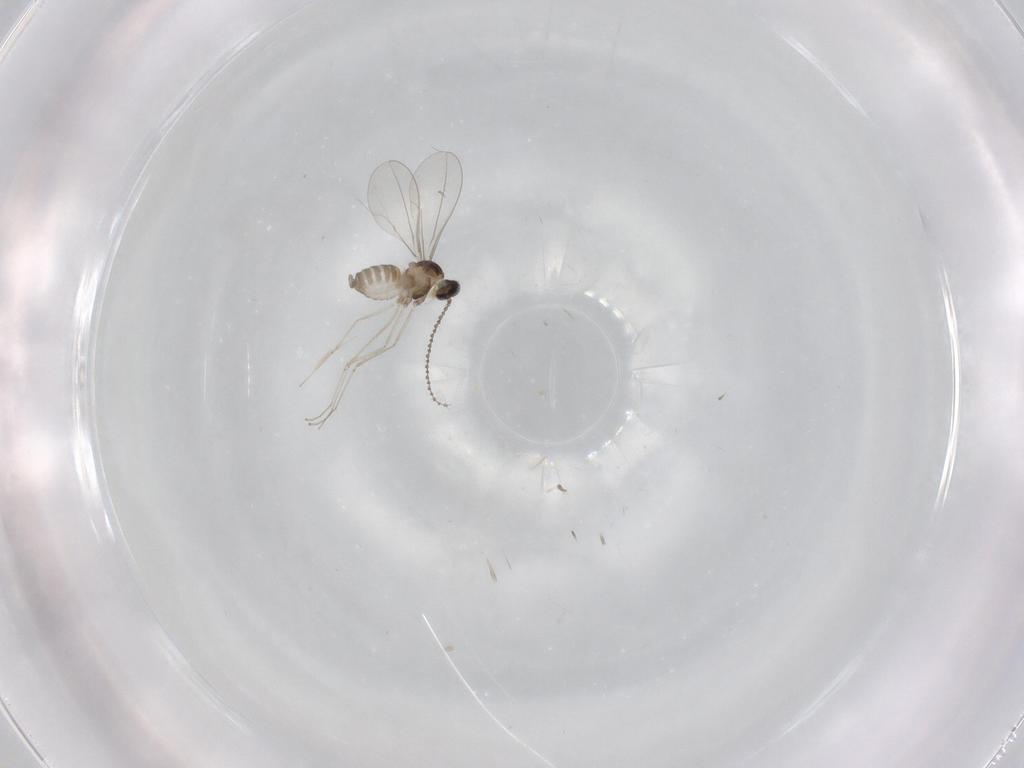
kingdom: Animalia
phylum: Arthropoda
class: Insecta
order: Diptera
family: Cecidomyiidae
